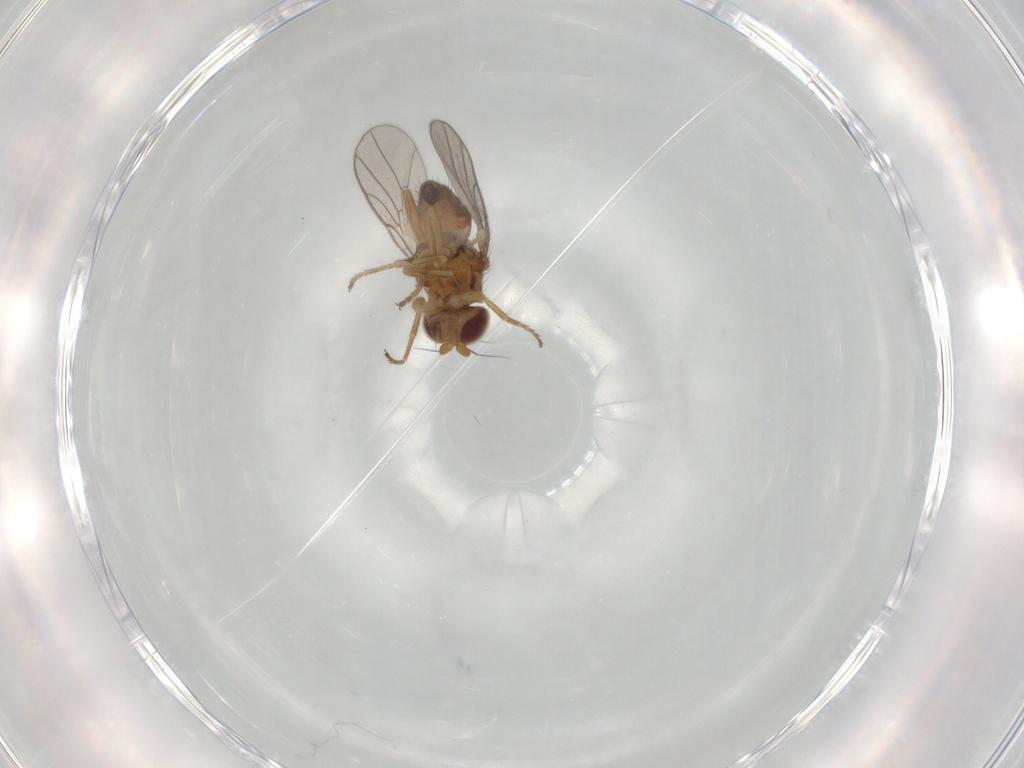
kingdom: Animalia
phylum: Arthropoda
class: Insecta
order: Diptera
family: Chloropidae
